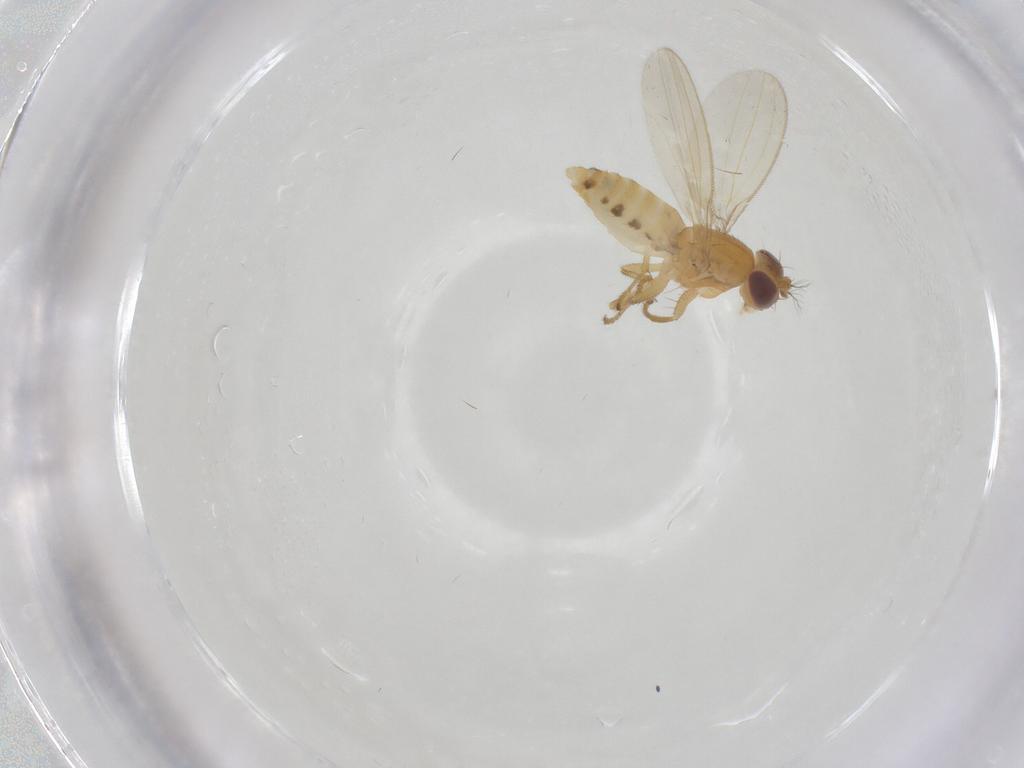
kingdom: Animalia
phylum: Arthropoda
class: Insecta
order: Diptera
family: Periscelididae
